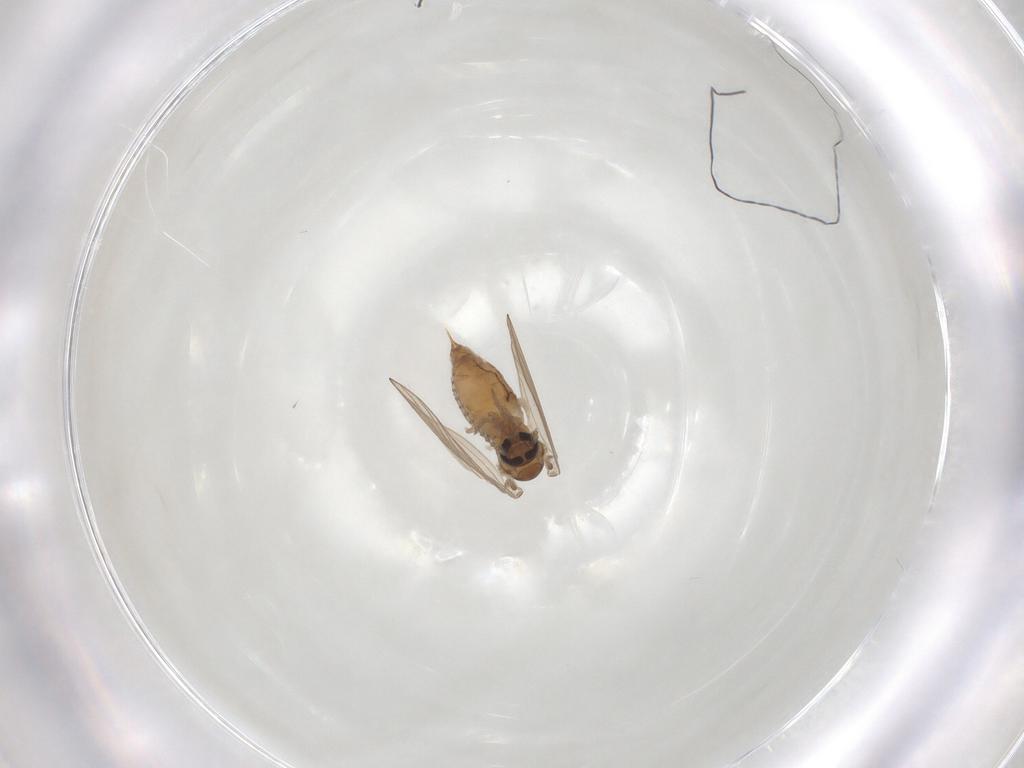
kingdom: Animalia
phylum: Arthropoda
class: Insecta
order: Diptera
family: Psychodidae
